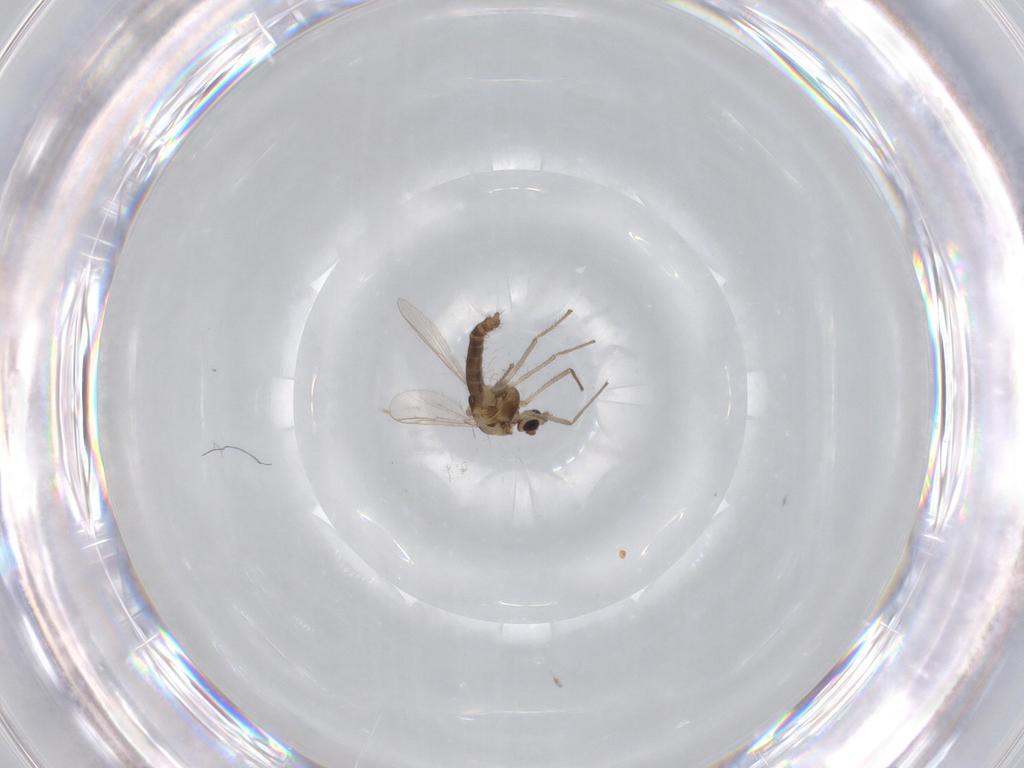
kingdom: Animalia
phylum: Arthropoda
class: Insecta
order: Diptera
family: Chironomidae
